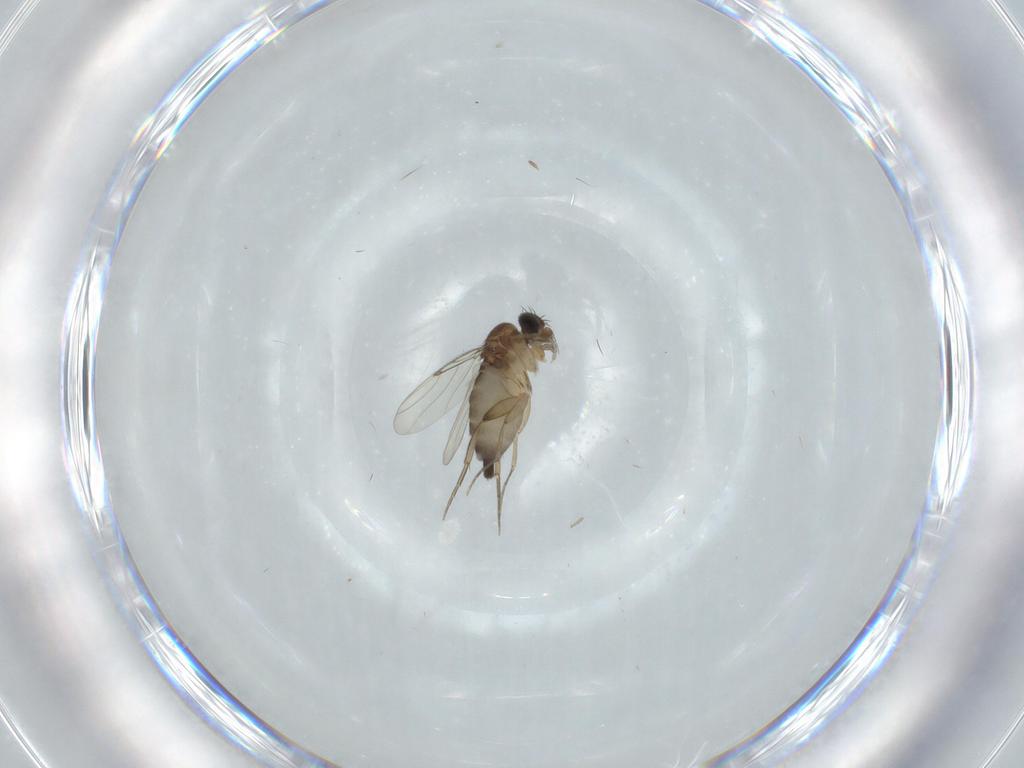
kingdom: Animalia
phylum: Arthropoda
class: Insecta
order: Diptera
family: Phoridae
